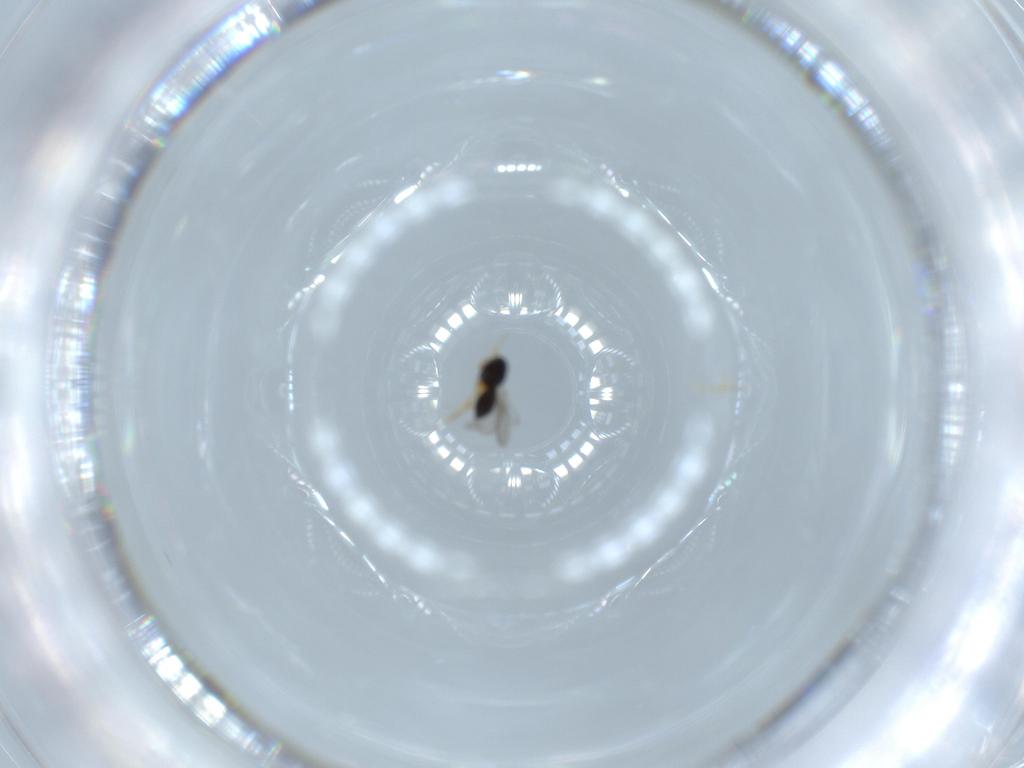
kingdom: Animalia
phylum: Arthropoda
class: Insecta
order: Hymenoptera
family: Scelionidae
